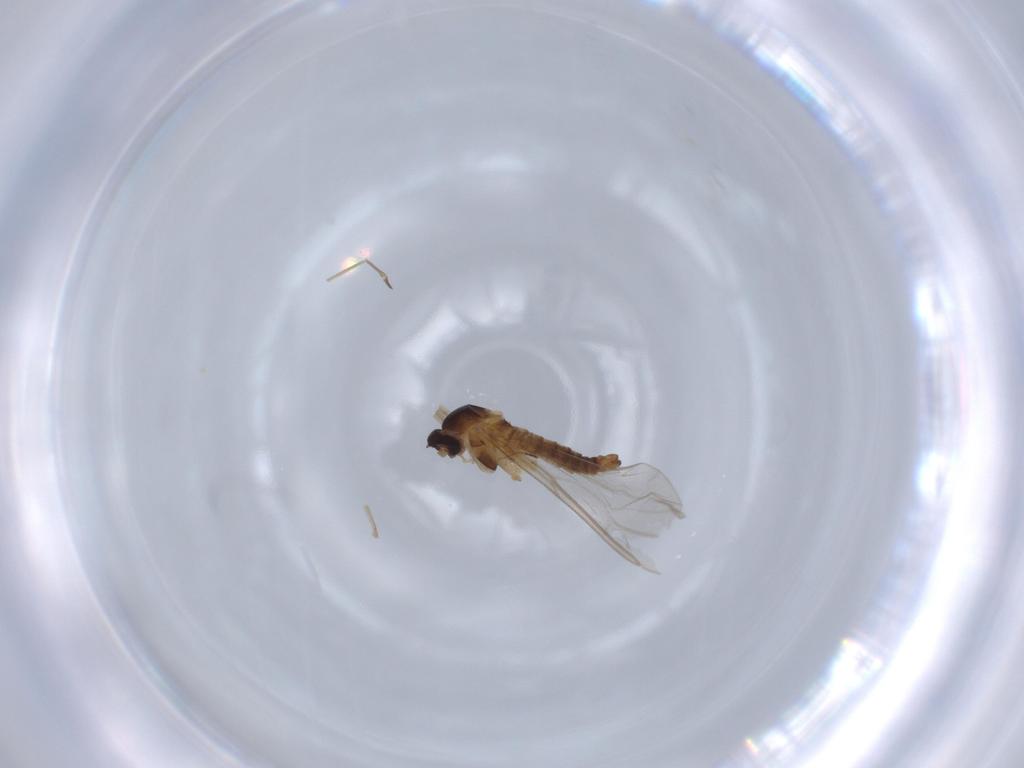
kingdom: Animalia
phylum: Arthropoda
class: Insecta
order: Diptera
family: Cecidomyiidae
